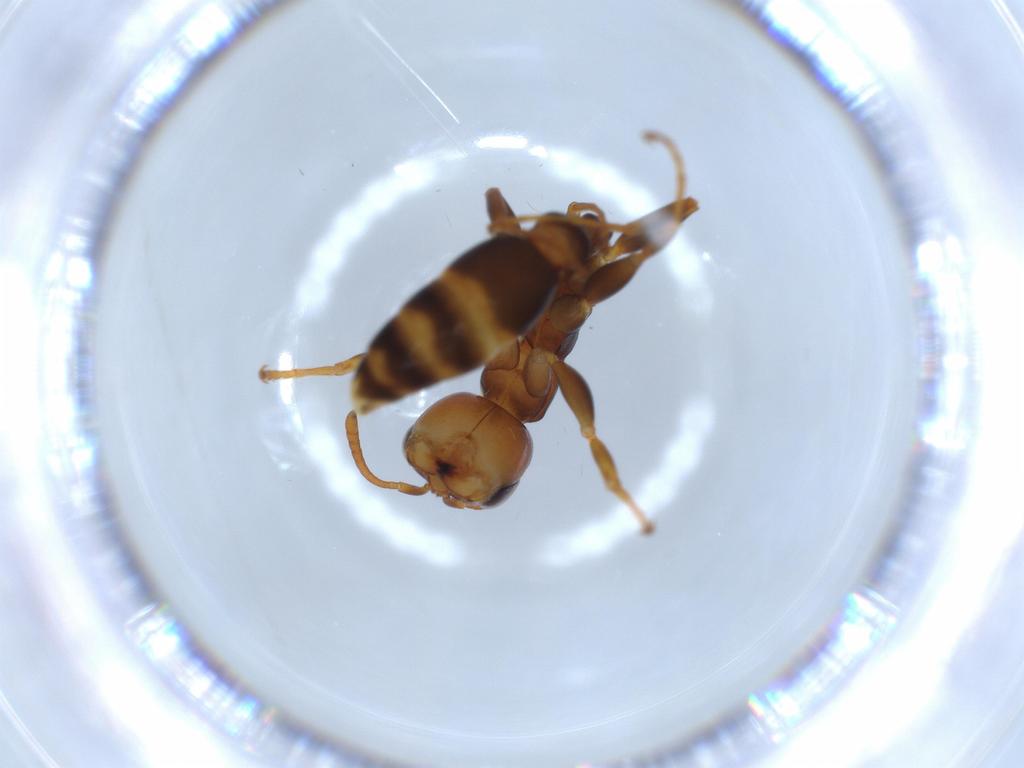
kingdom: Animalia
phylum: Arthropoda
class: Insecta
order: Hymenoptera
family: Formicidae
